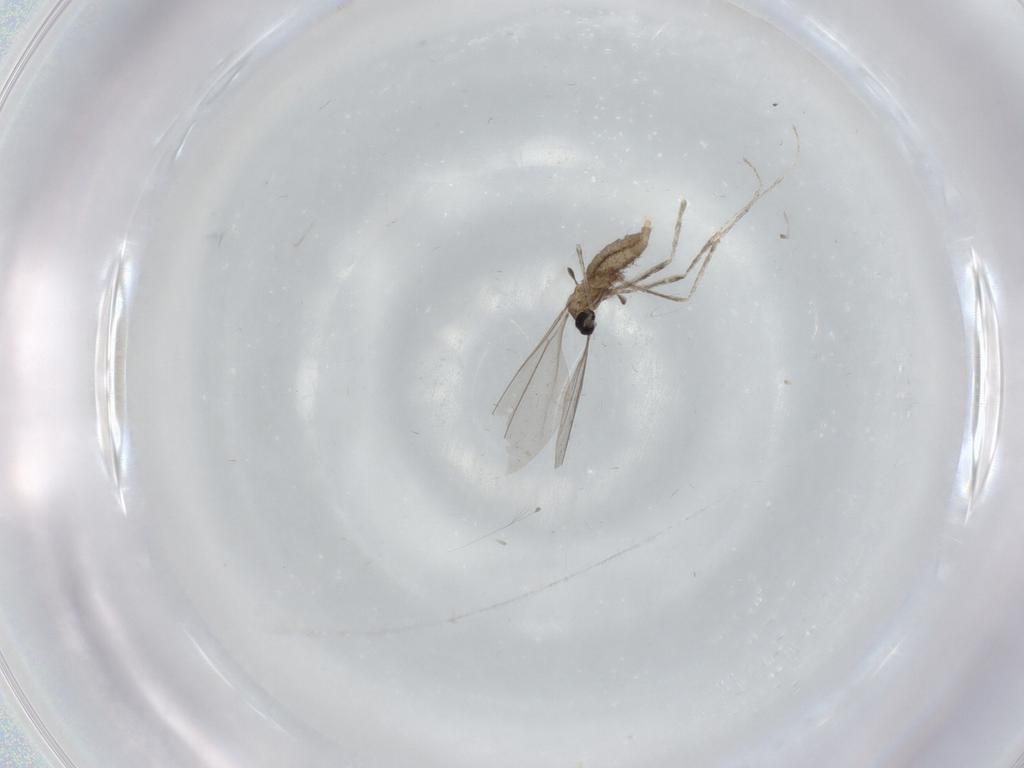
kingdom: Animalia
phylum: Arthropoda
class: Insecta
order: Diptera
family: Cecidomyiidae
